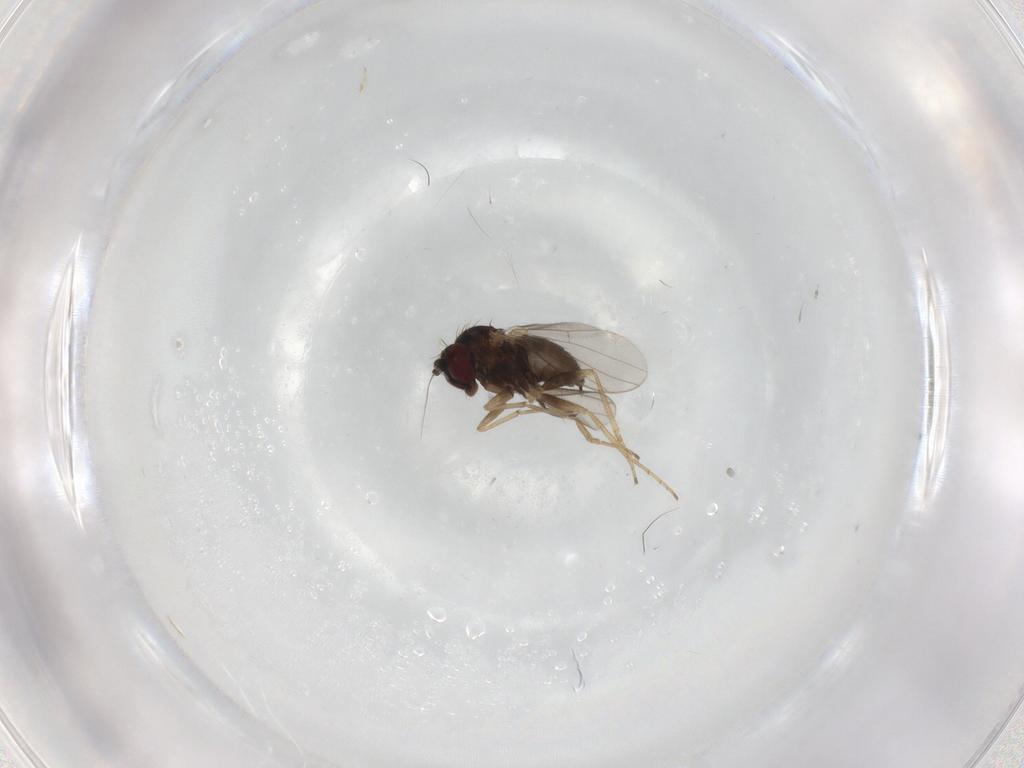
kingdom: Animalia
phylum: Arthropoda
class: Insecta
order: Diptera
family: Dolichopodidae
